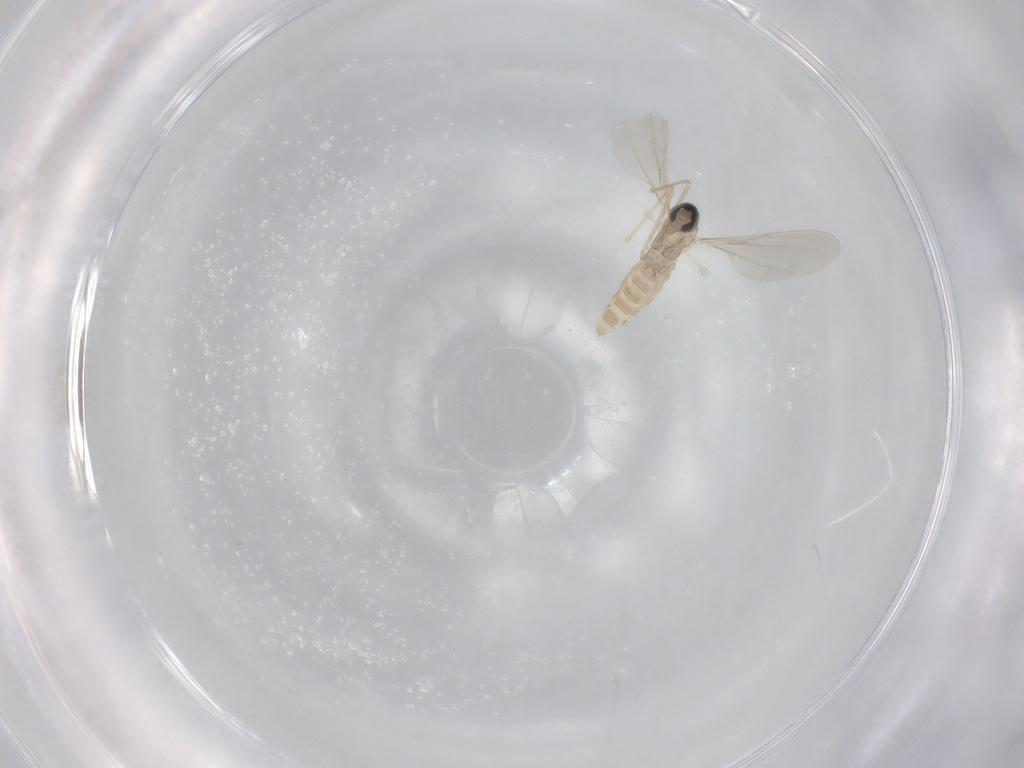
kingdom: Animalia
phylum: Arthropoda
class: Insecta
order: Diptera
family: Cecidomyiidae
